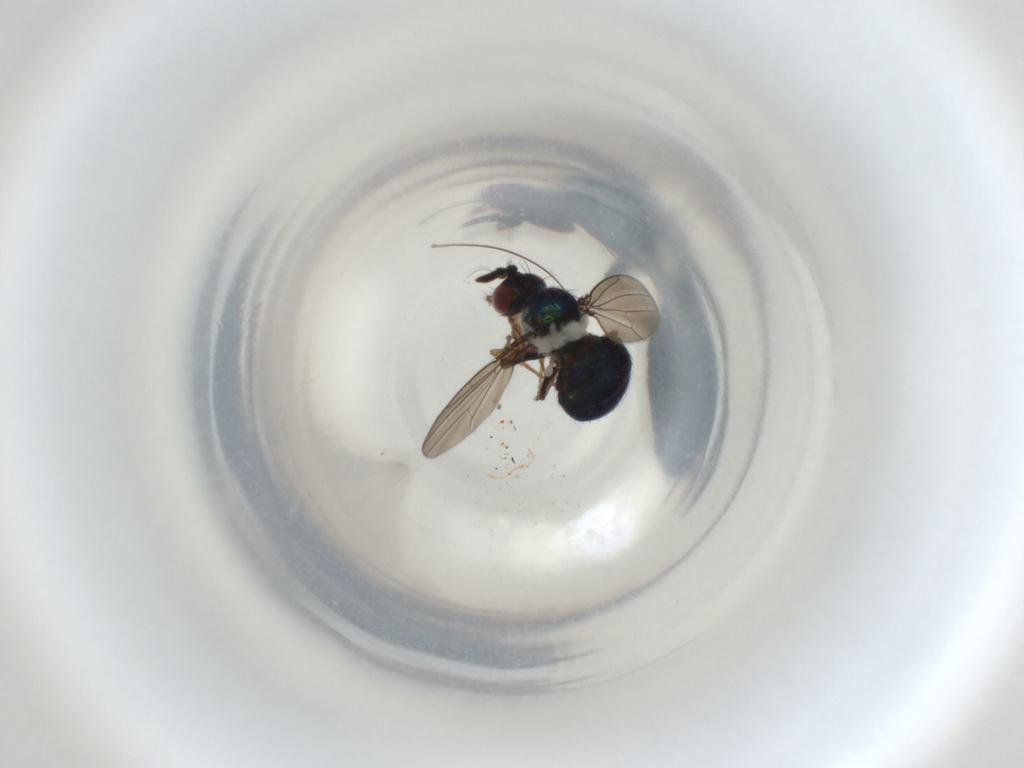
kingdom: Animalia
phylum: Arthropoda
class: Insecta
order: Diptera
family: Ephydridae
